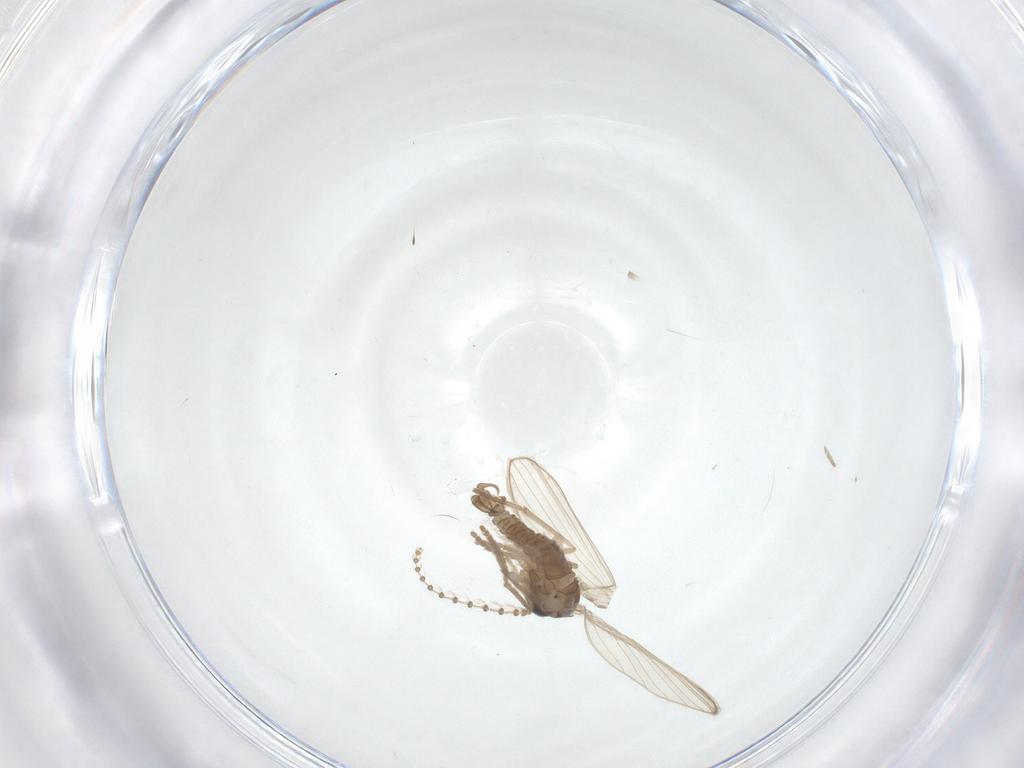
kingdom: Animalia
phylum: Arthropoda
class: Insecta
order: Diptera
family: Psychodidae
